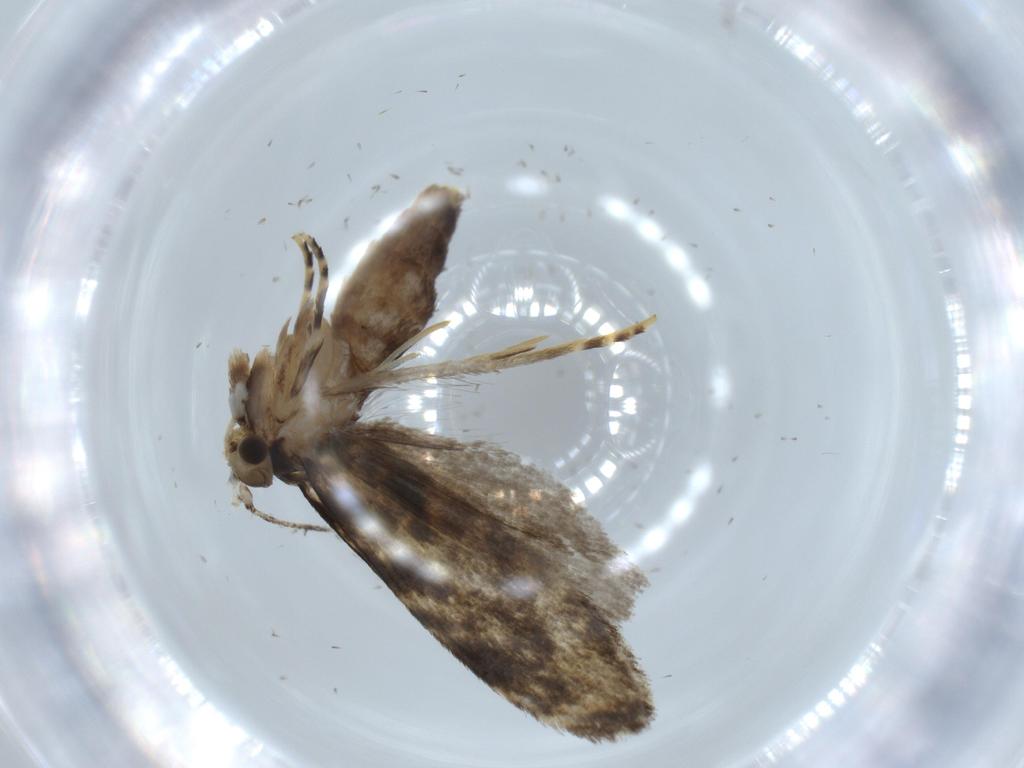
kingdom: Animalia
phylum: Arthropoda
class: Insecta
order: Lepidoptera
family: Tineidae
